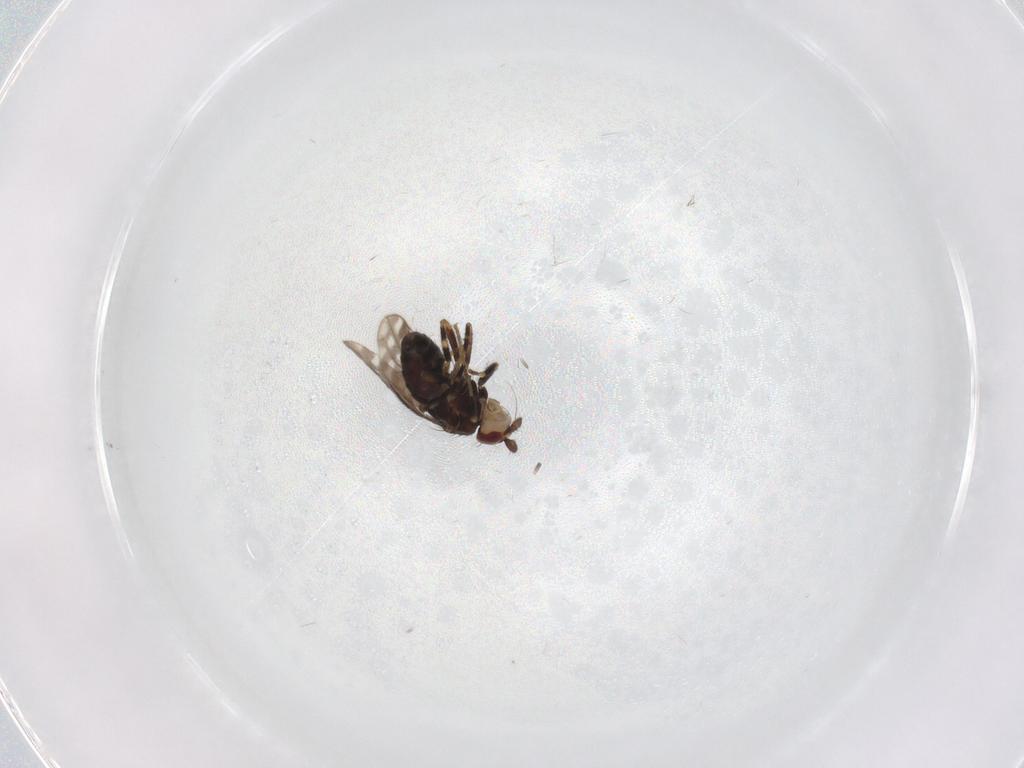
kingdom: Animalia
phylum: Arthropoda
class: Insecta
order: Diptera
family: Sphaeroceridae
